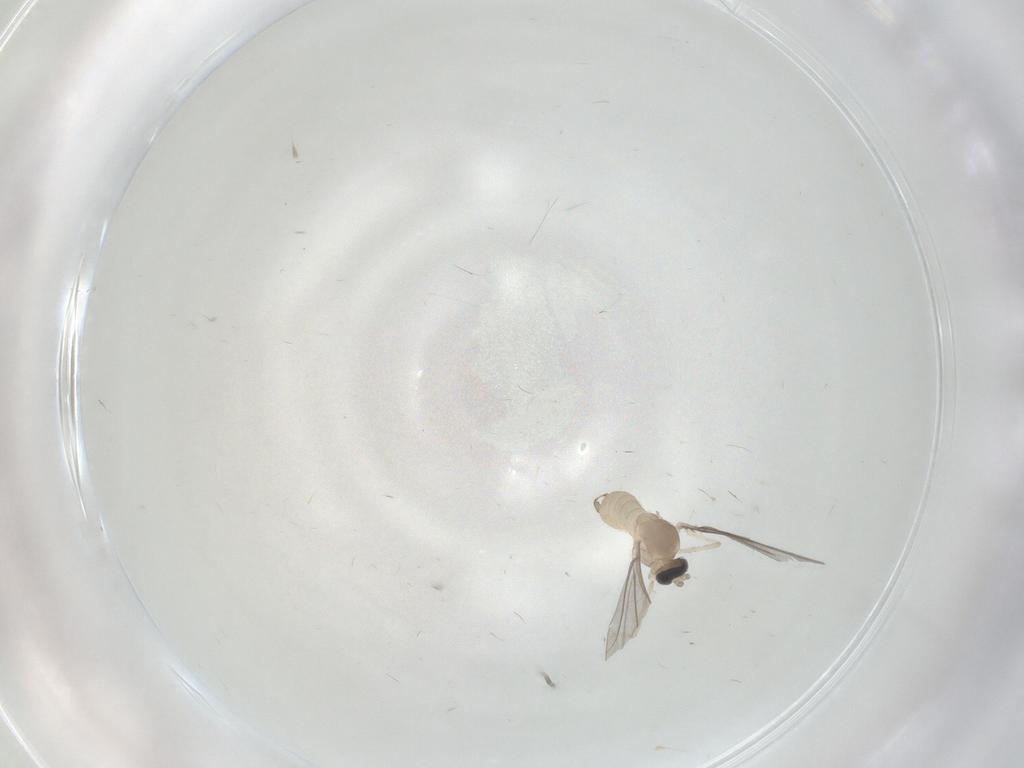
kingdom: Animalia
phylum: Arthropoda
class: Insecta
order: Diptera
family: Cecidomyiidae
